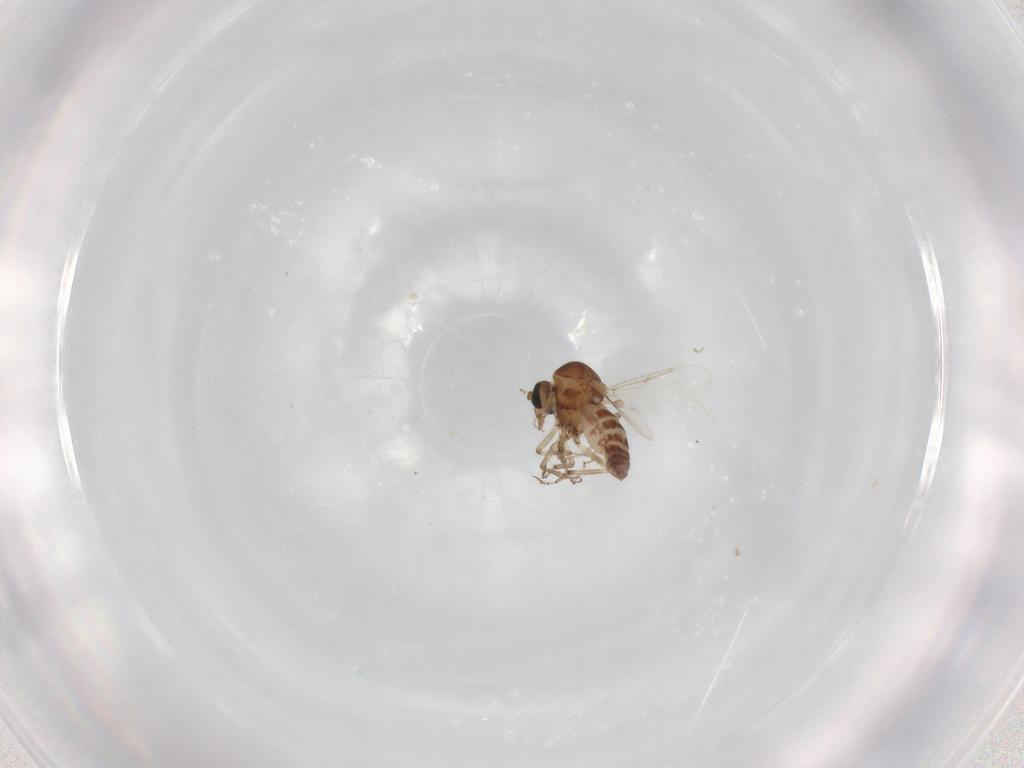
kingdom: Animalia
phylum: Arthropoda
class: Insecta
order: Diptera
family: Ceratopogonidae
